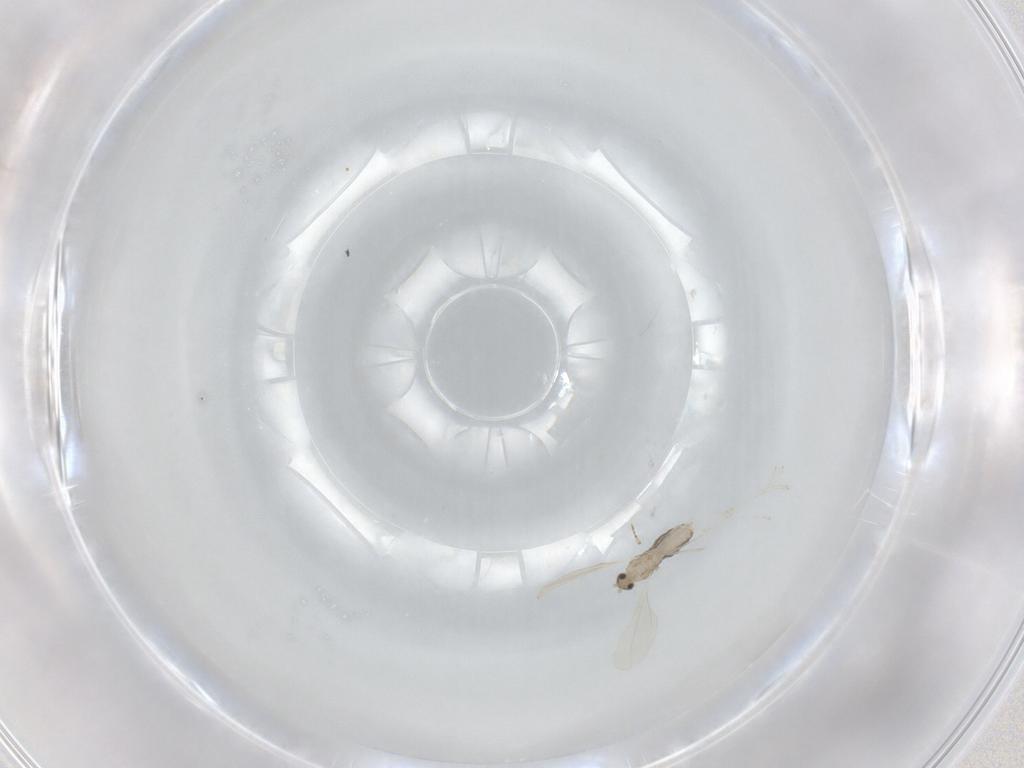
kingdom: Animalia
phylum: Arthropoda
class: Insecta
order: Diptera
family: Cecidomyiidae
